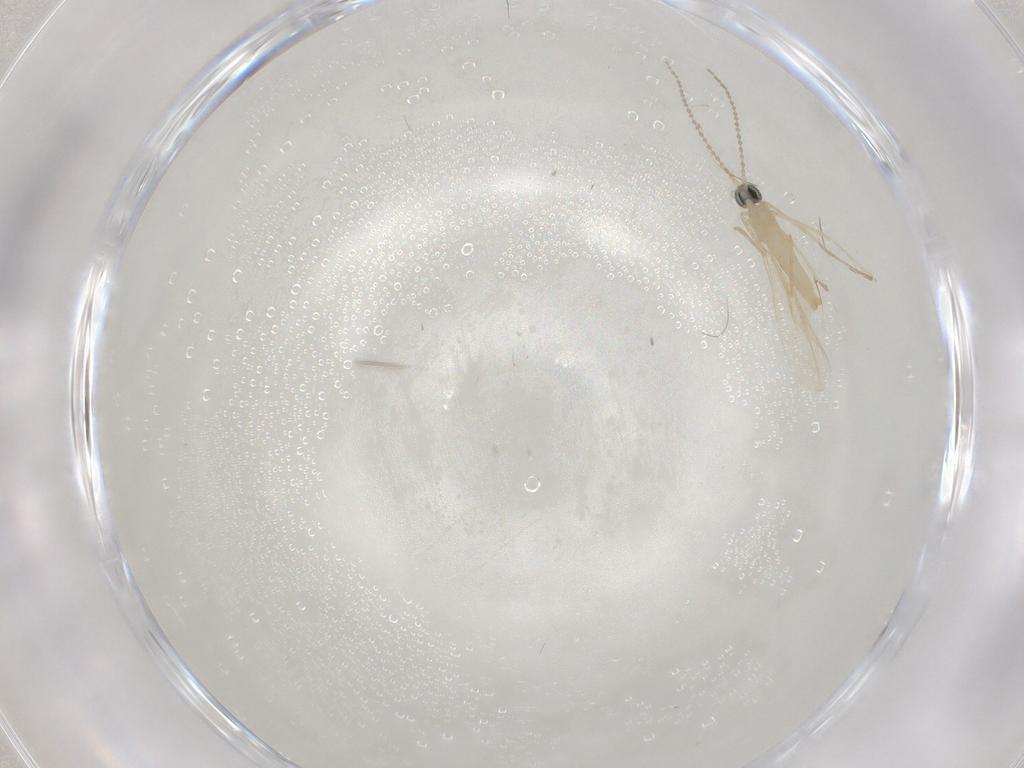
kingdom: Animalia
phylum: Arthropoda
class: Insecta
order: Diptera
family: Cecidomyiidae
